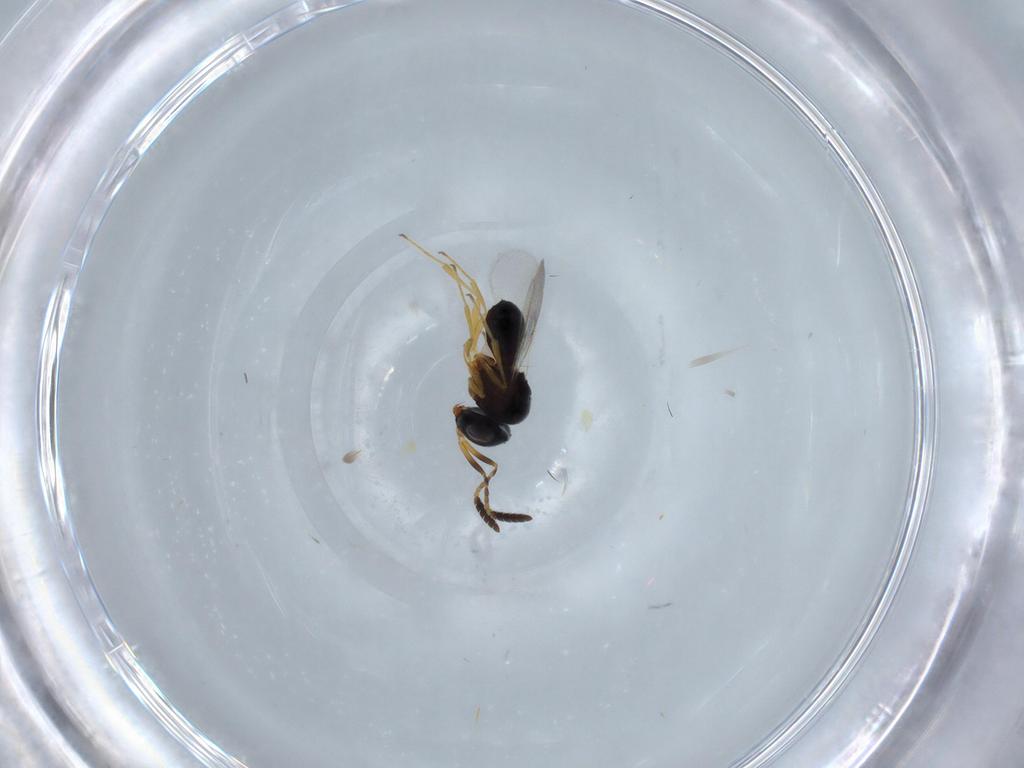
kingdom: Animalia
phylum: Arthropoda
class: Insecta
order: Hymenoptera
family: Scelionidae
